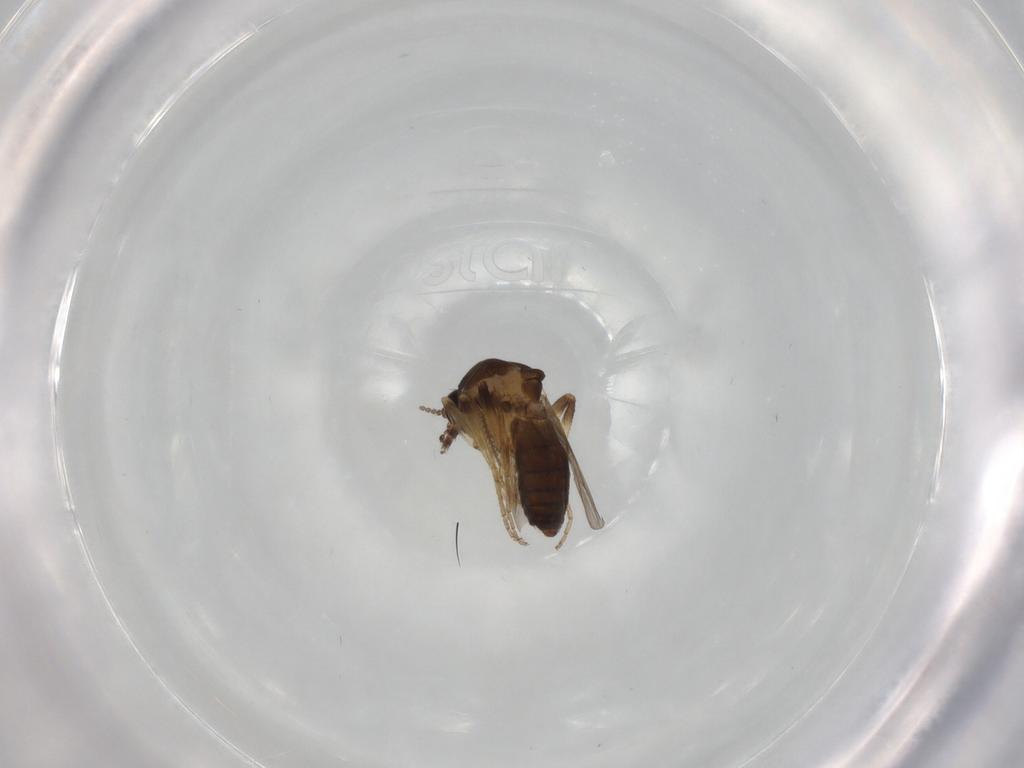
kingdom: Animalia
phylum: Arthropoda
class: Insecta
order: Diptera
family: Ceratopogonidae
